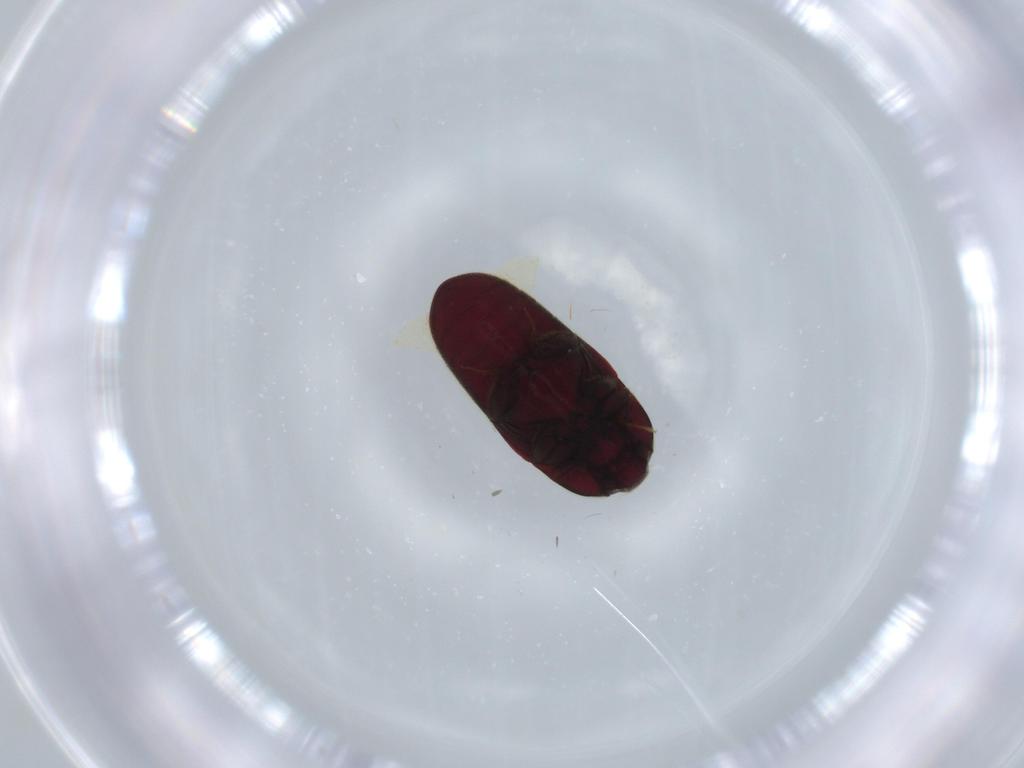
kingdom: Animalia
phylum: Arthropoda
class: Insecta
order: Coleoptera
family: Throscidae
